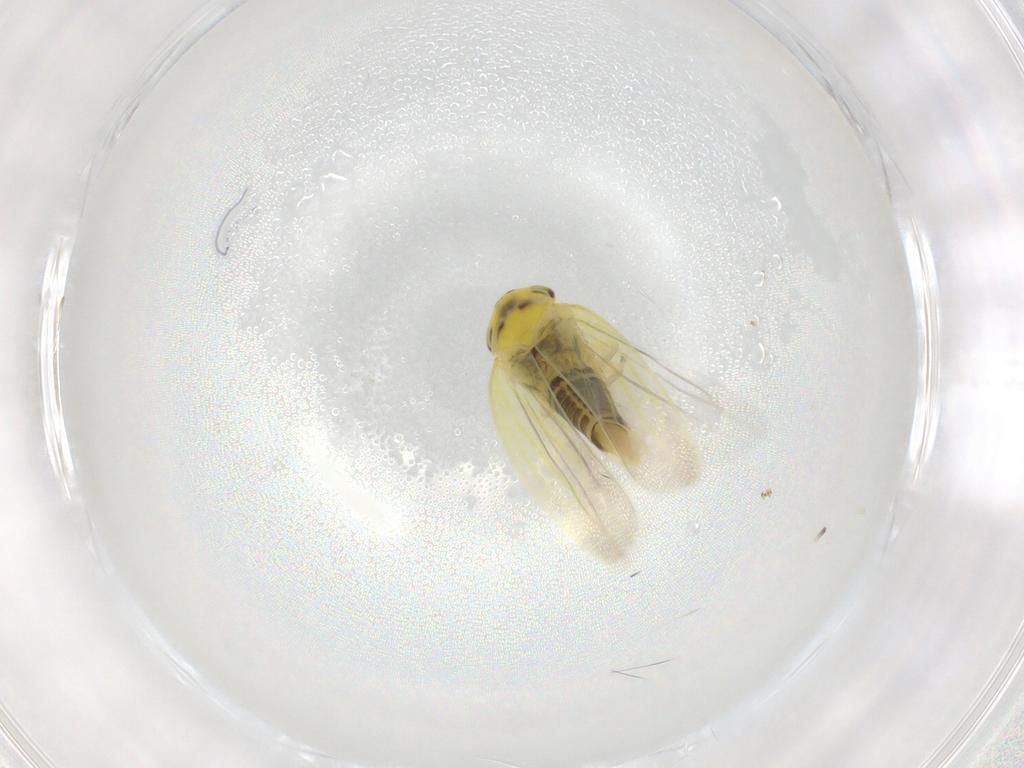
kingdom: Animalia
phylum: Arthropoda
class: Insecta
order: Hemiptera
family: Cicadellidae
